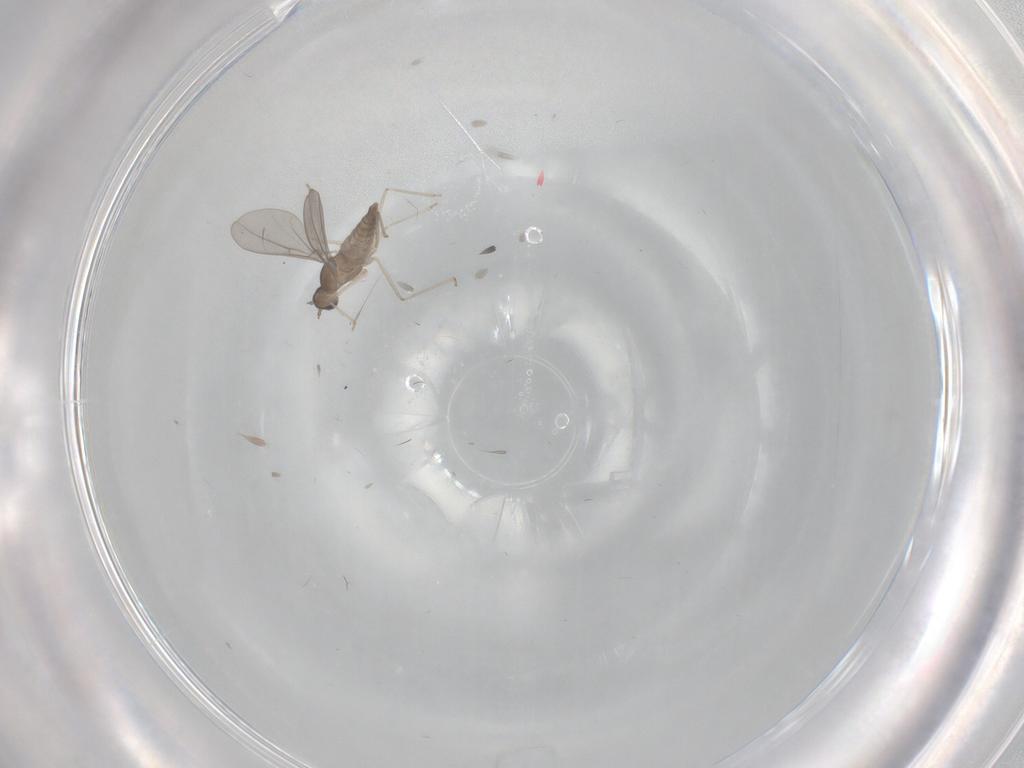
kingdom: Animalia
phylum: Arthropoda
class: Insecta
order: Diptera
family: Cecidomyiidae
